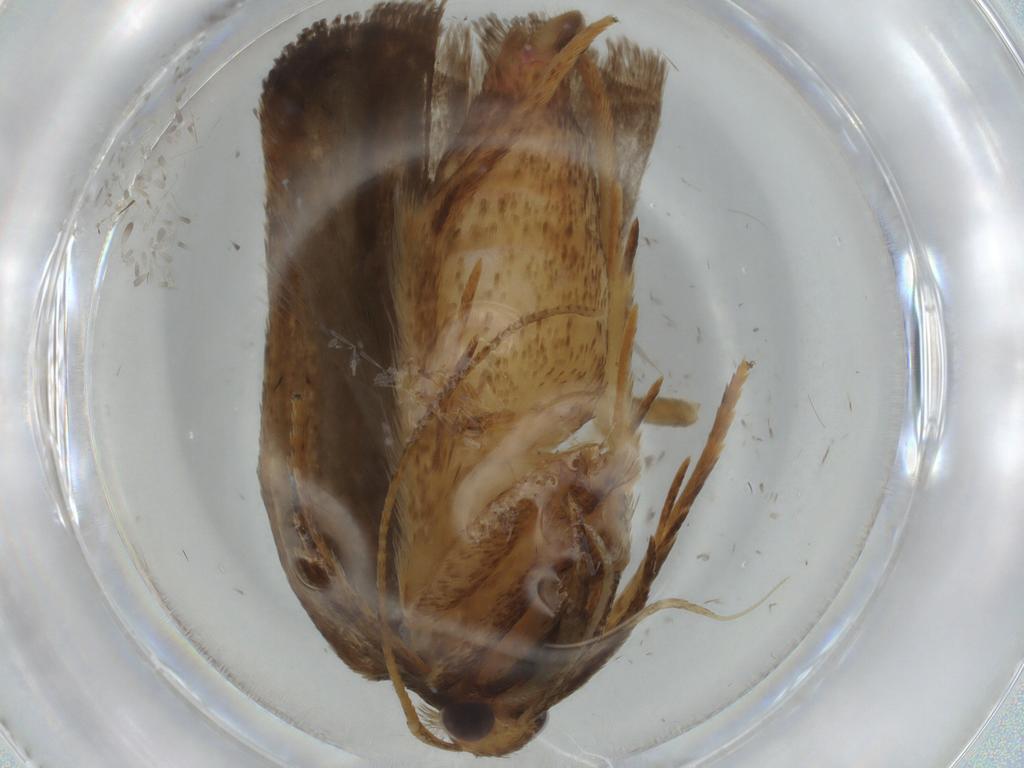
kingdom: Animalia
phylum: Arthropoda
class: Insecta
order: Lepidoptera
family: Autostichidae
